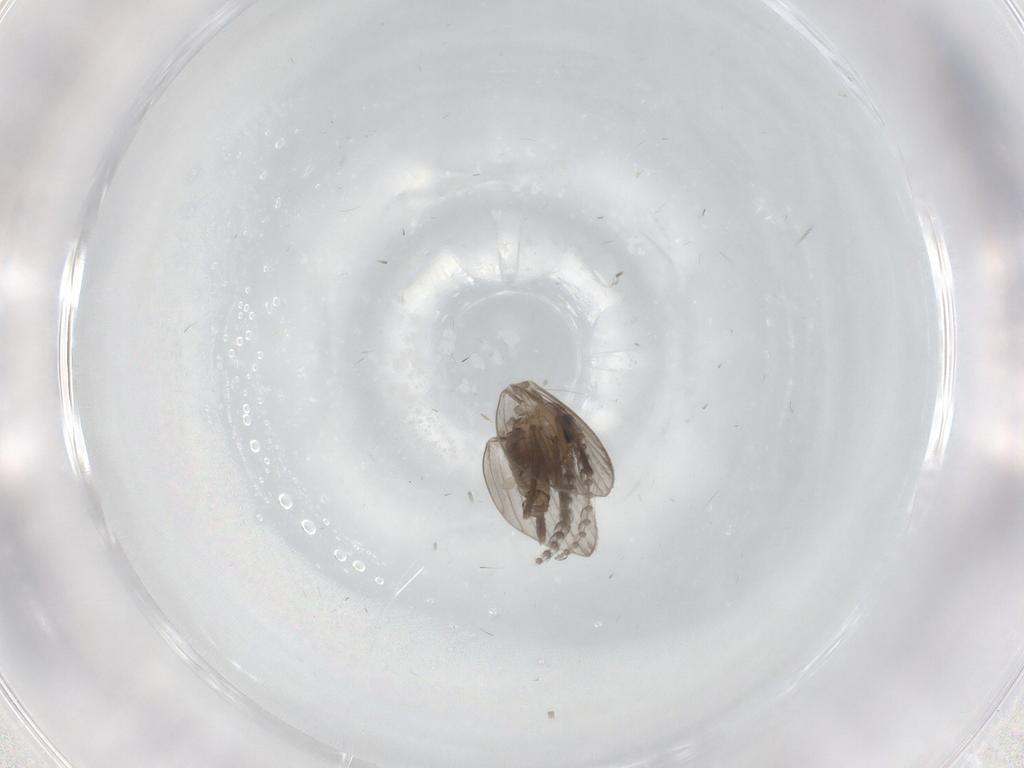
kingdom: Animalia
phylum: Arthropoda
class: Insecta
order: Diptera
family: Psychodidae
